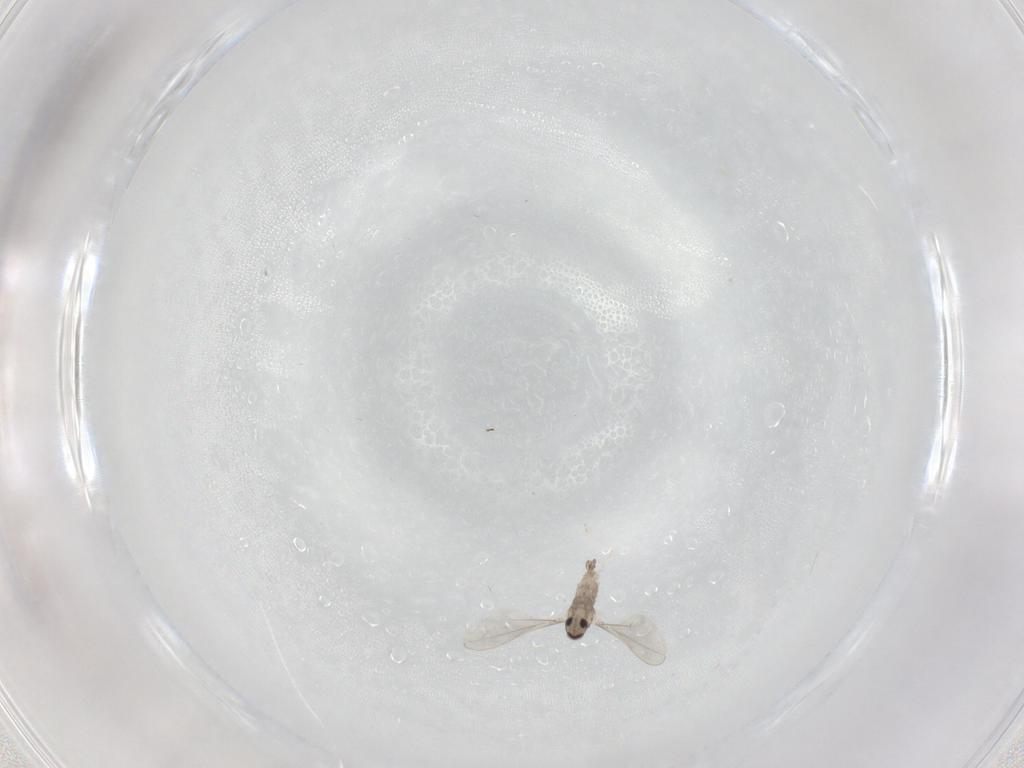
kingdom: Animalia
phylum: Arthropoda
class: Insecta
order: Diptera
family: Cecidomyiidae
